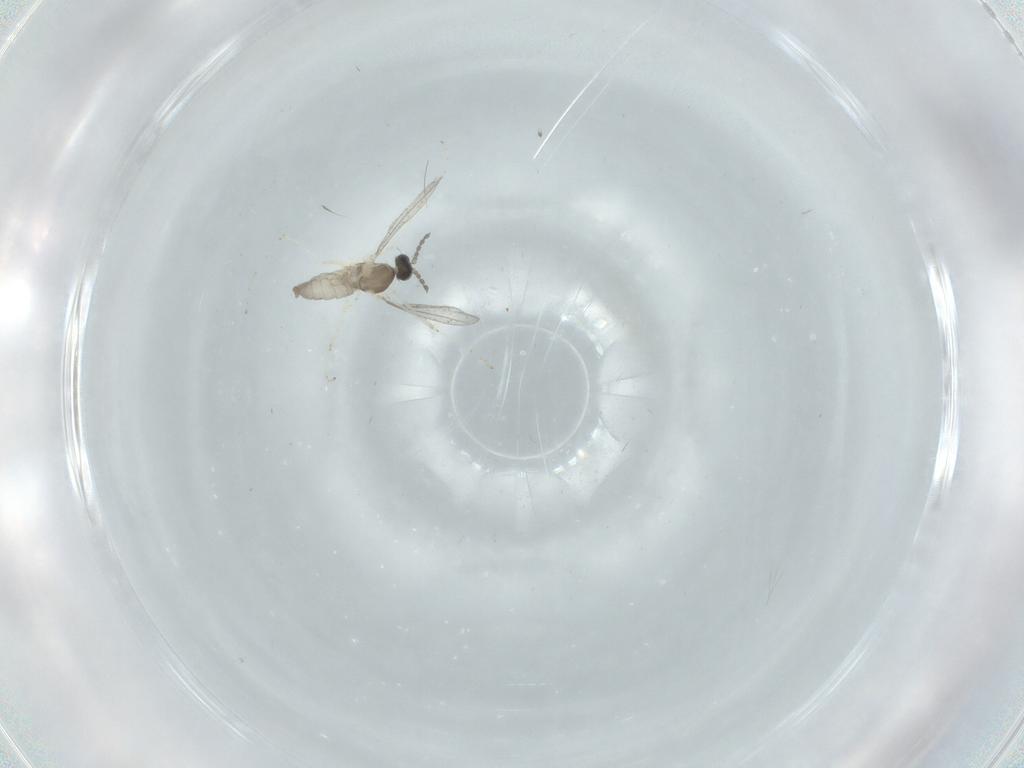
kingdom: Animalia
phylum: Arthropoda
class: Insecta
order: Diptera
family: Cecidomyiidae
